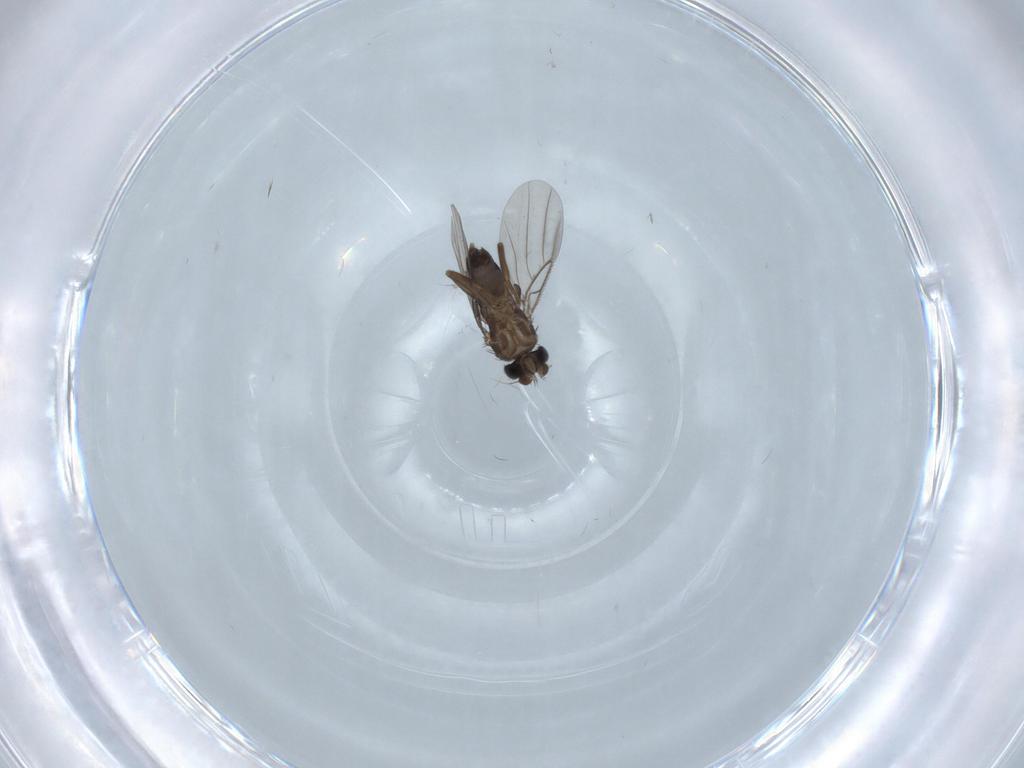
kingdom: Animalia
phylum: Arthropoda
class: Insecta
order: Diptera
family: Phoridae
